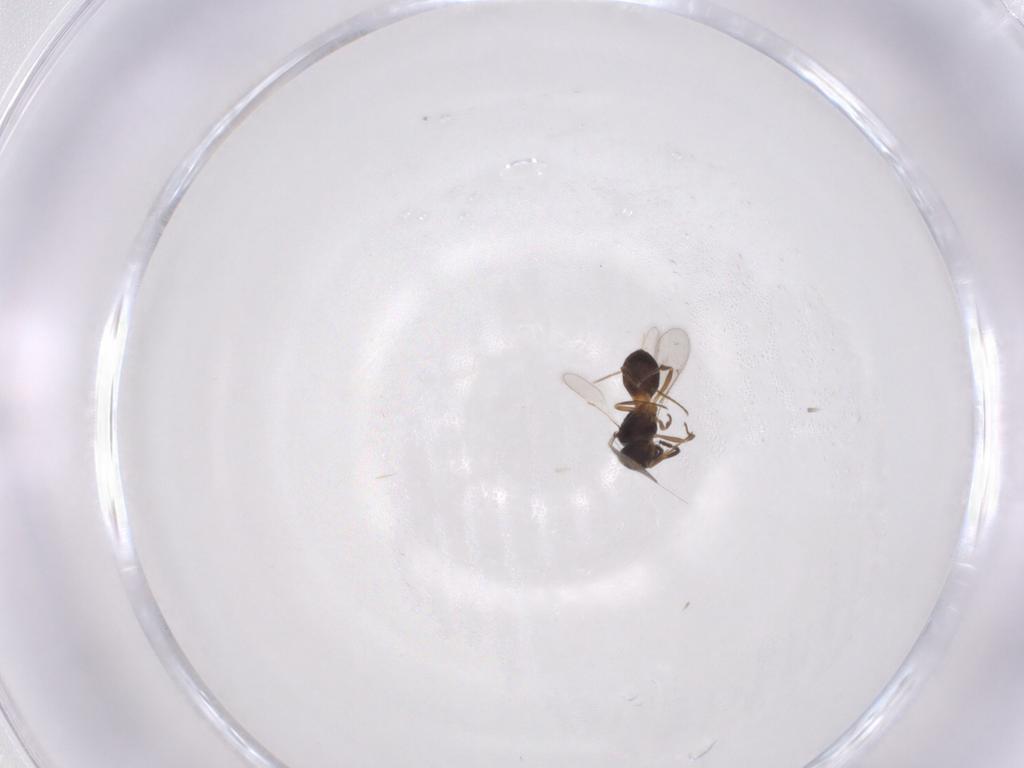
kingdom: Animalia
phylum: Arthropoda
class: Insecta
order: Hymenoptera
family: Scelionidae
